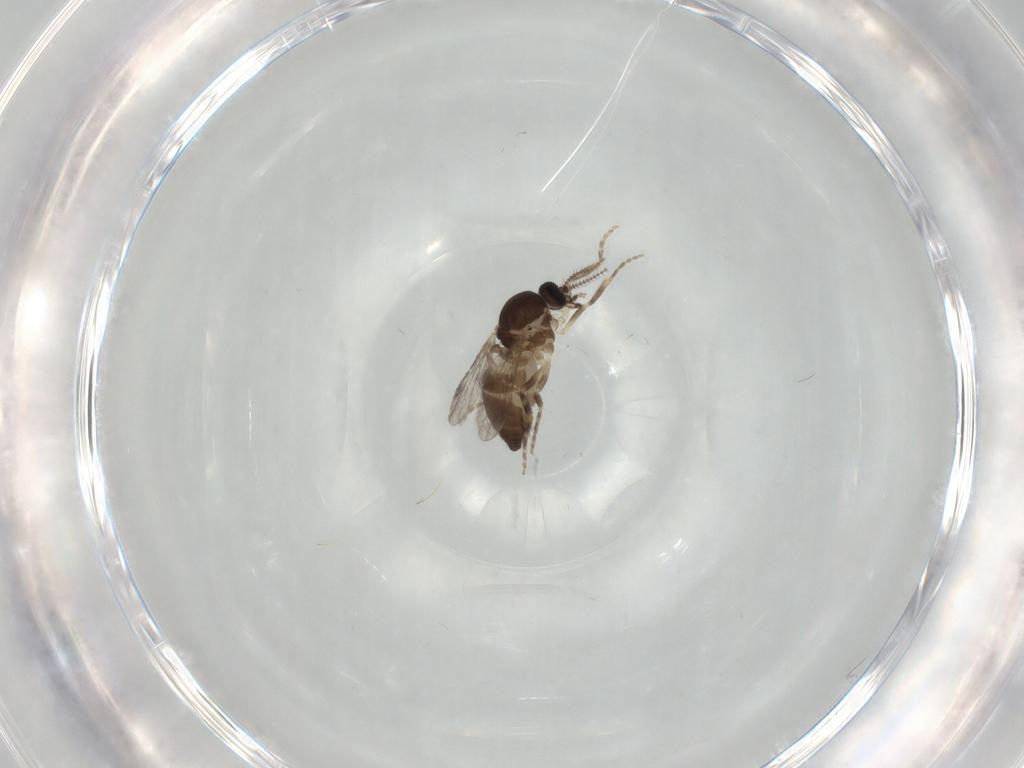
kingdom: Animalia
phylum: Arthropoda
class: Insecta
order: Diptera
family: Ceratopogonidae
